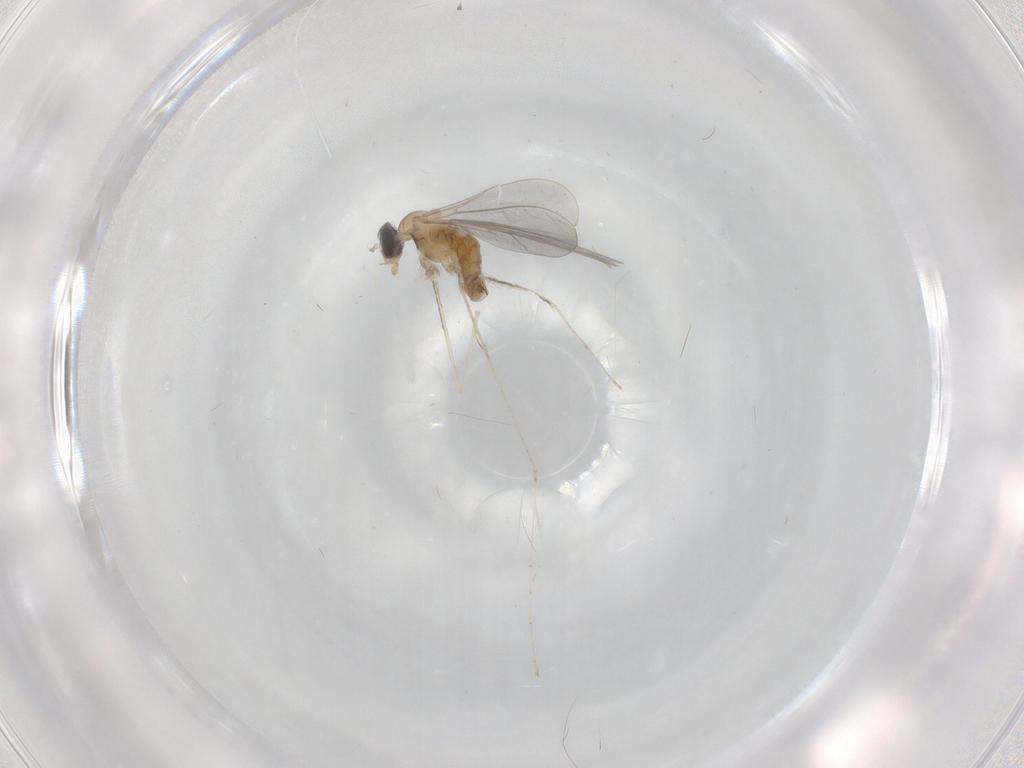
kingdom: Animalia
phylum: Arthropoda
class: Insecta
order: Diptera
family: Cecidomyiidae
